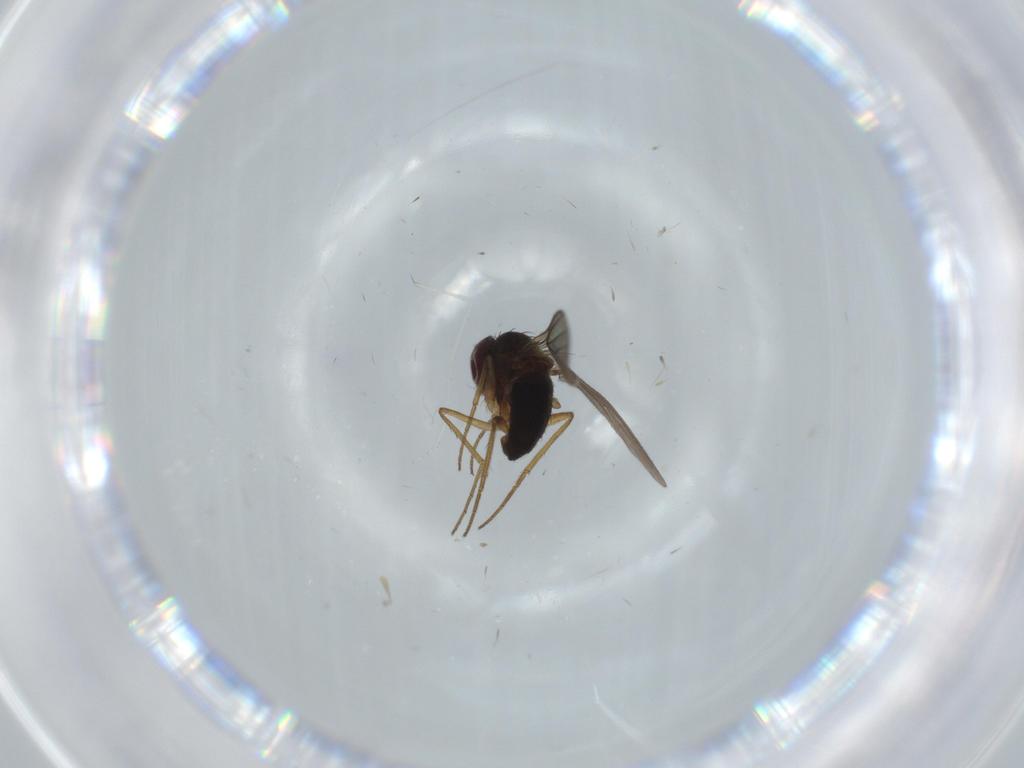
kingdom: Animalia
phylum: Arthropoda
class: Insecta
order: Diptera
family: Dolichopodidae
